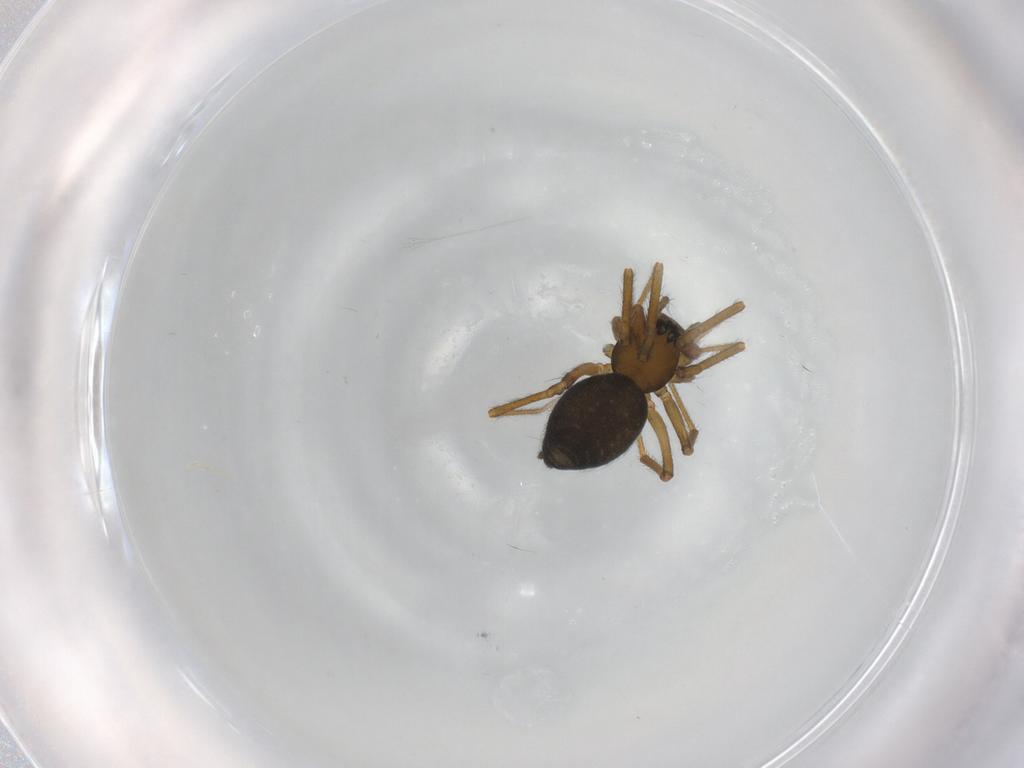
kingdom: Animalia
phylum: Arthropoda
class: Arachnida
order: Araneae
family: Linyphiidae
